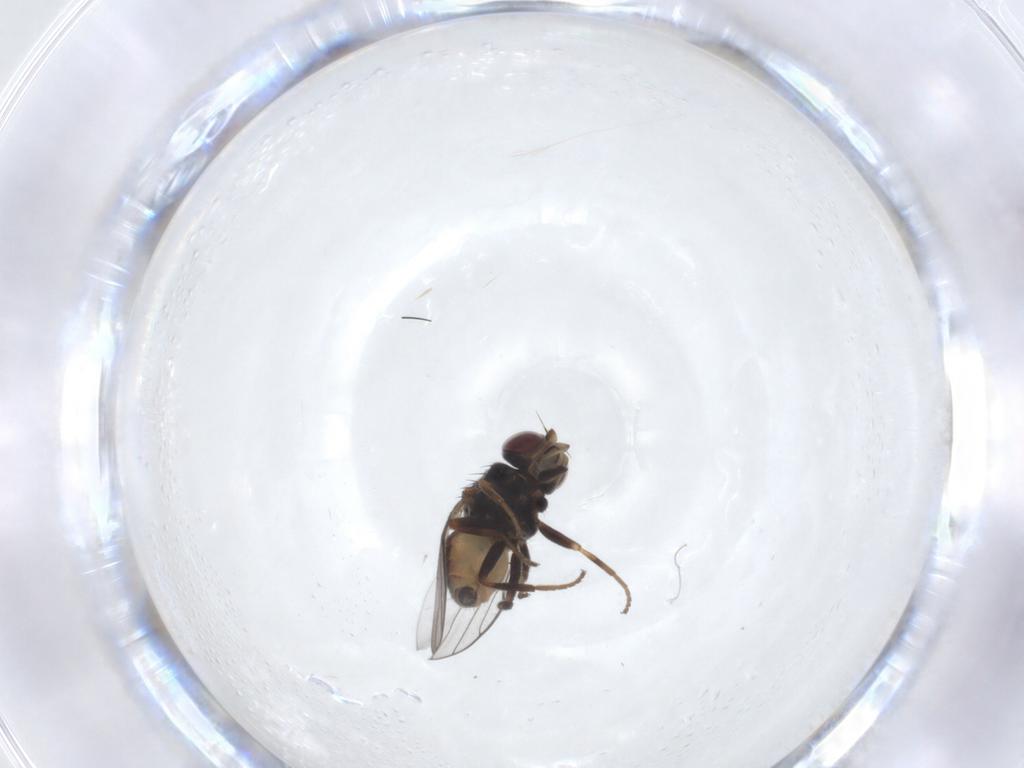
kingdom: Animalia
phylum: Arthropoda
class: Insecta
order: Diptera
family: Chloropidae
